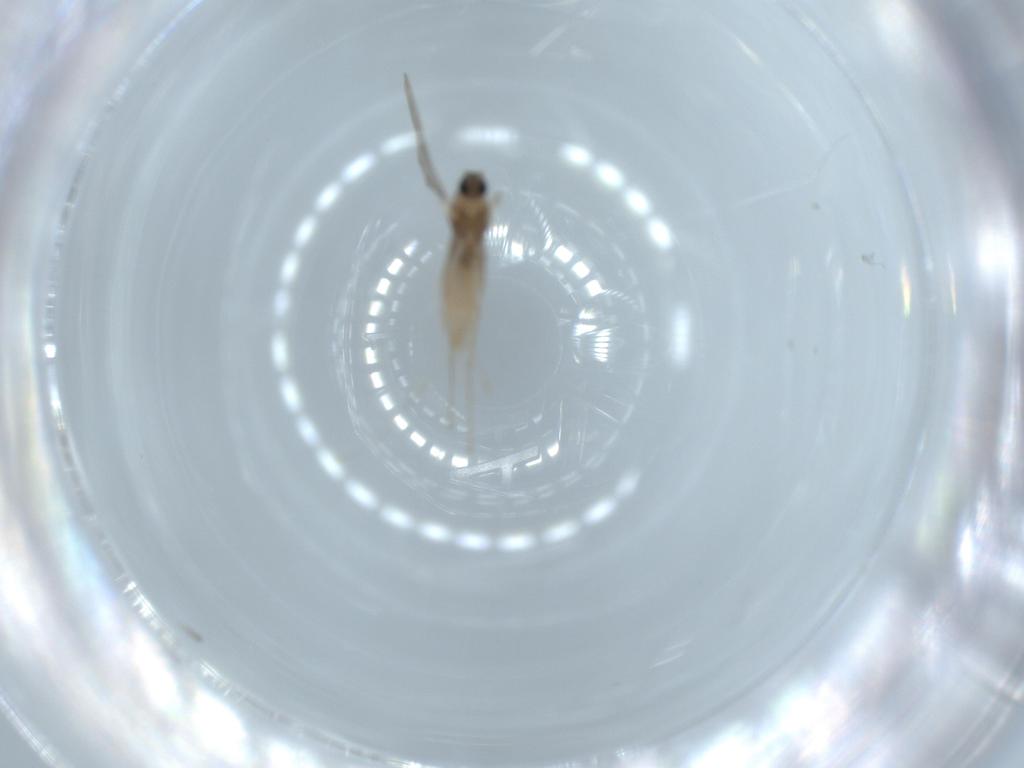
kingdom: Animalia
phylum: Arthropoda
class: Insecta
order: Diptera
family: Cecidomyiidae
